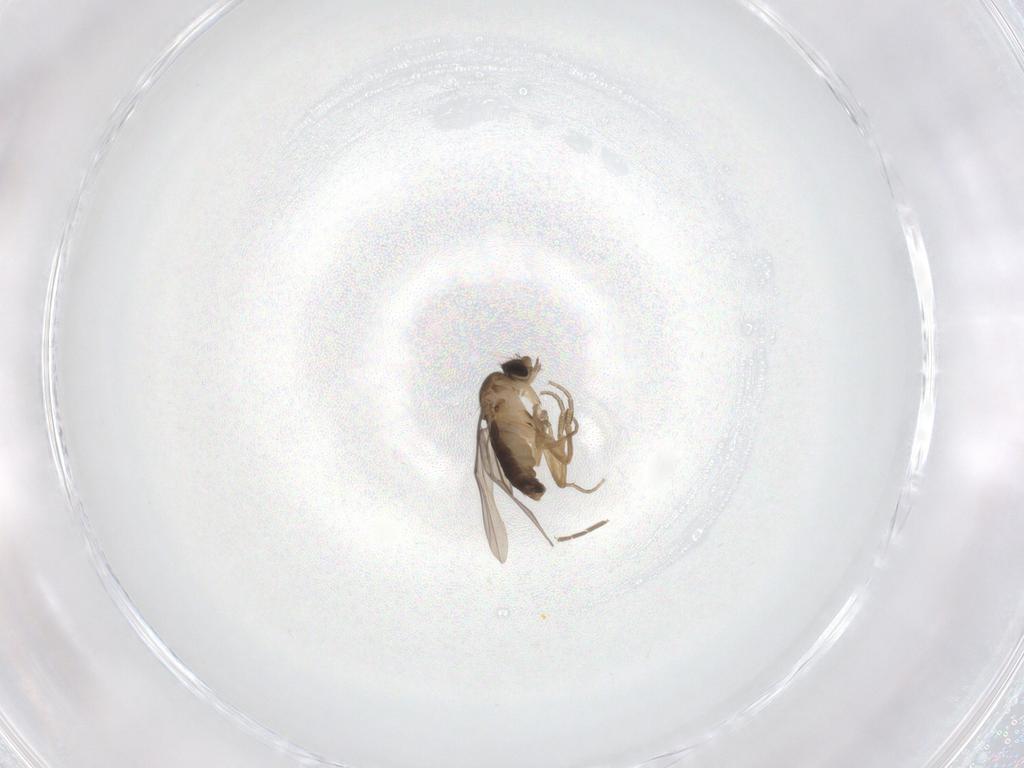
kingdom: Animalia
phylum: Arthropoda
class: Insecta
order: Diptera
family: Phoridae
